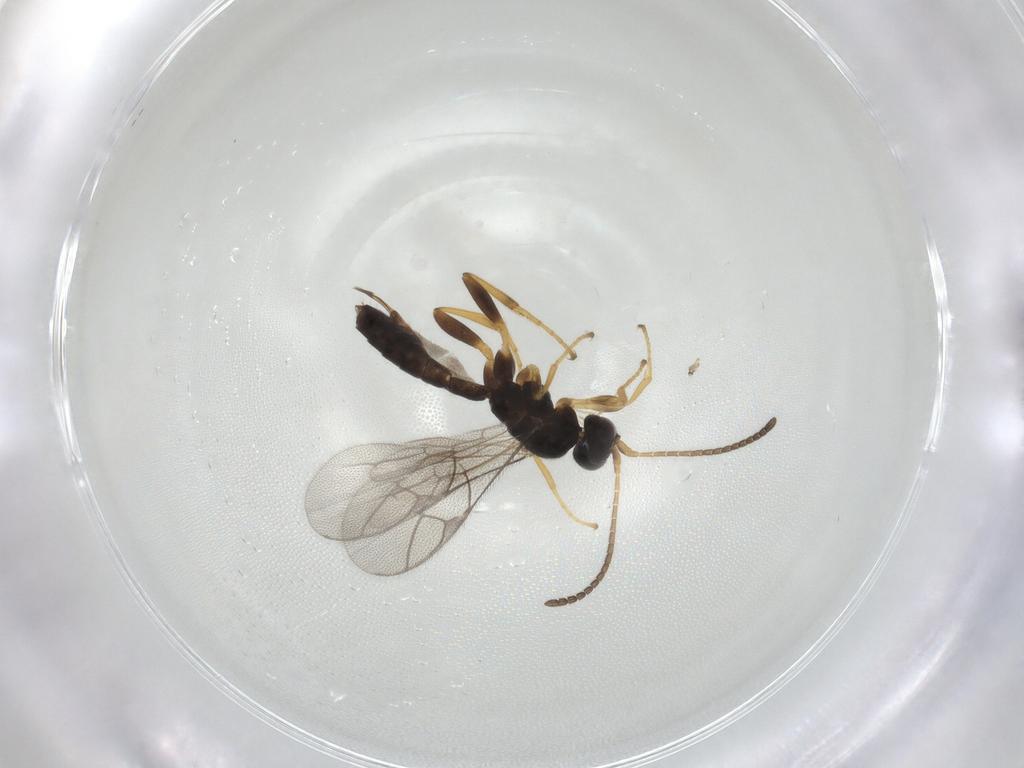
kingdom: Animalia
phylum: Arthropoda
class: Insecta
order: Hymenoptera
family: Ichneumonidae
